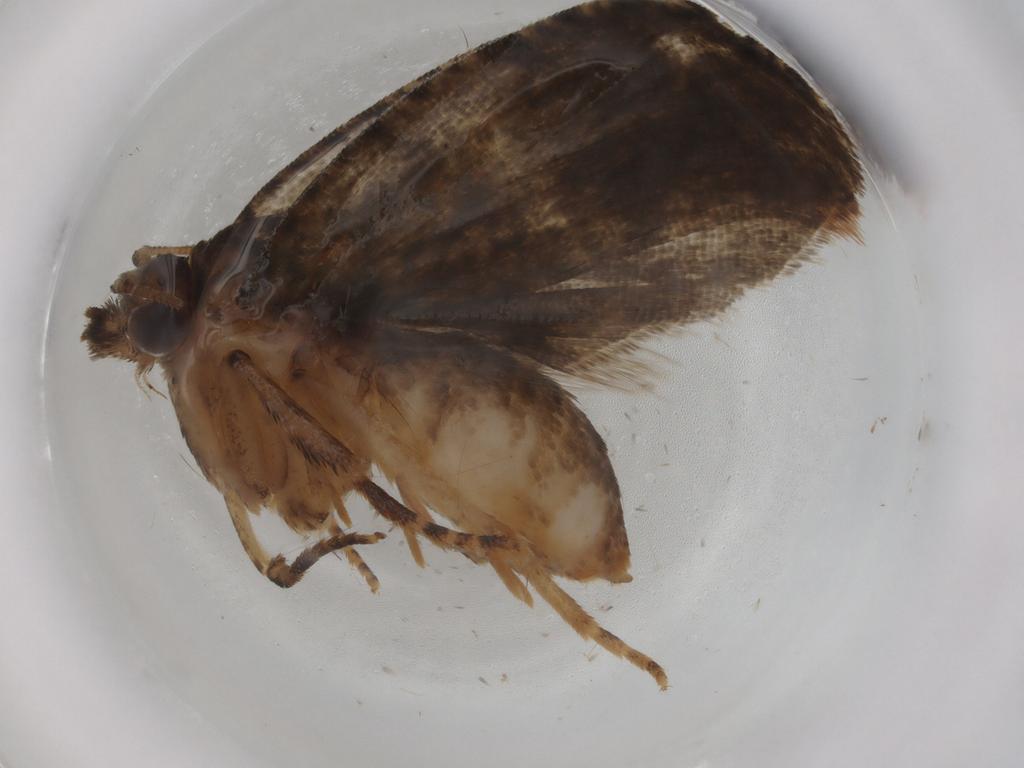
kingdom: Animalia
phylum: Arthropoda
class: Insecta
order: Lepidoptera
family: Tortricidae
